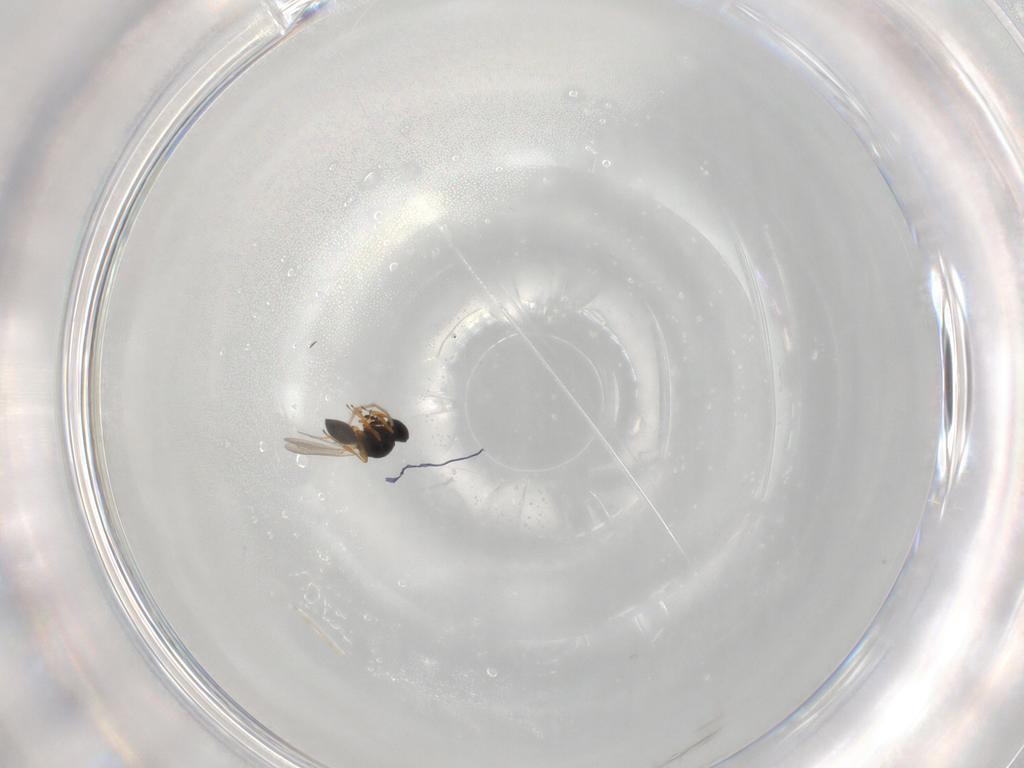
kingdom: Animalia
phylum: Arthropoda
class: Insecta
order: Hymenoptera
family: Platygastridae
